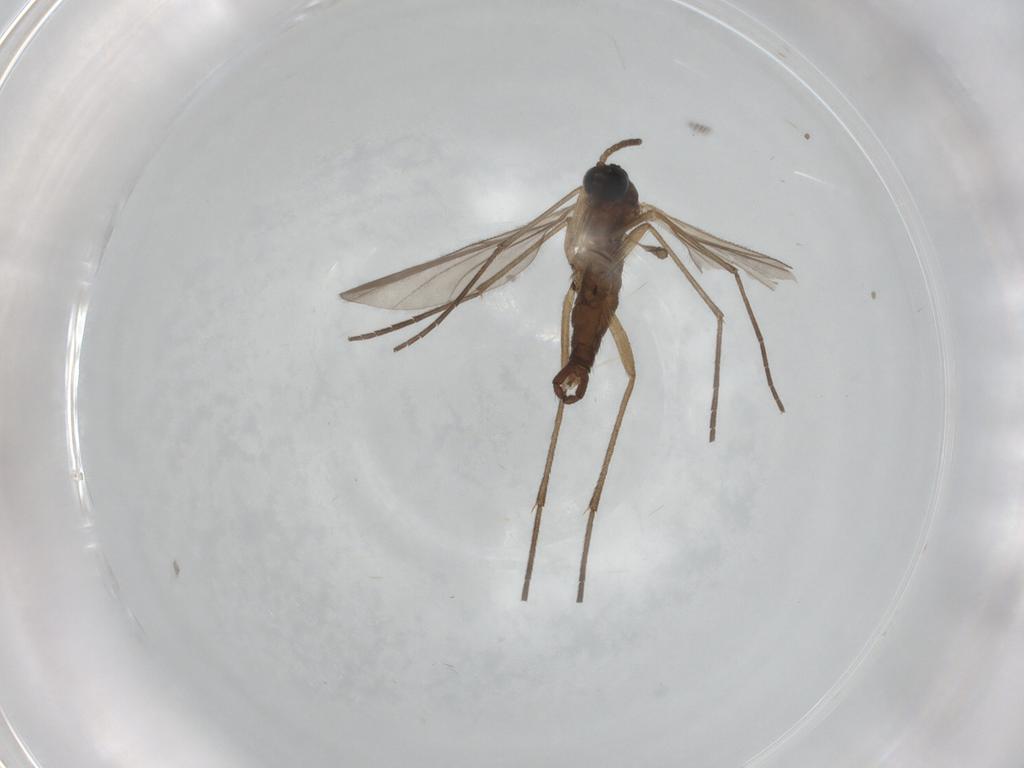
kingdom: Animalia
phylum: Arthropoda
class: Insecta
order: Diptera
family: Sciaridae
